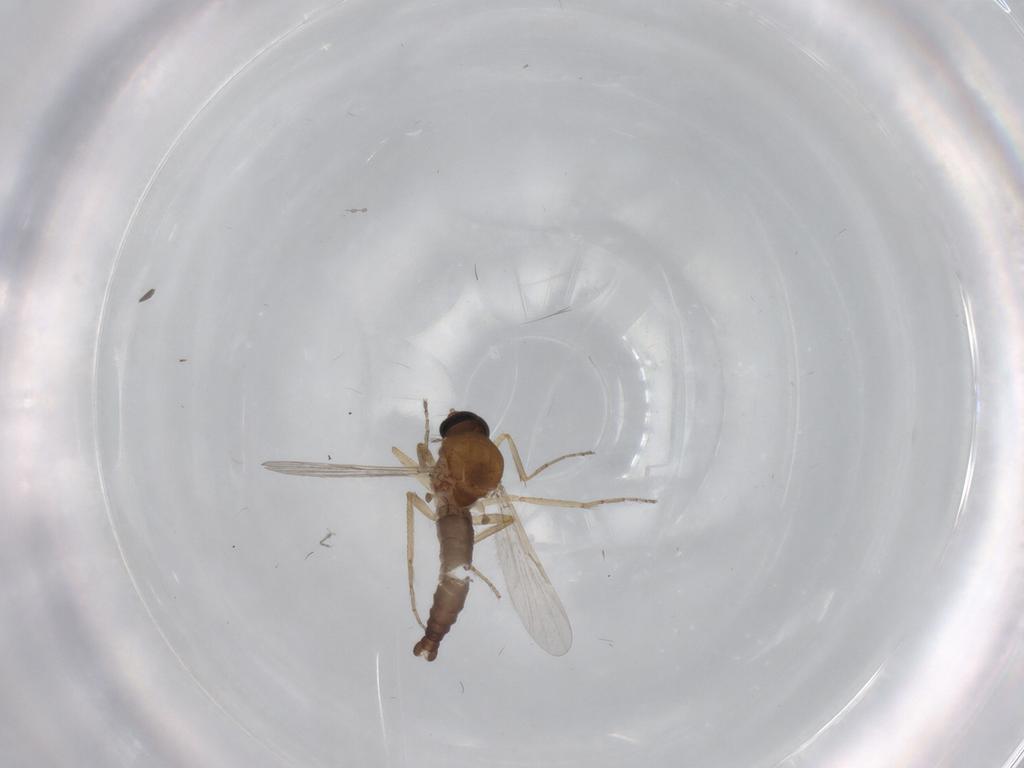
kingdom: Animalia
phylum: Arthropoda
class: Insecta
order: Diptera
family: Ceratopogonidae
